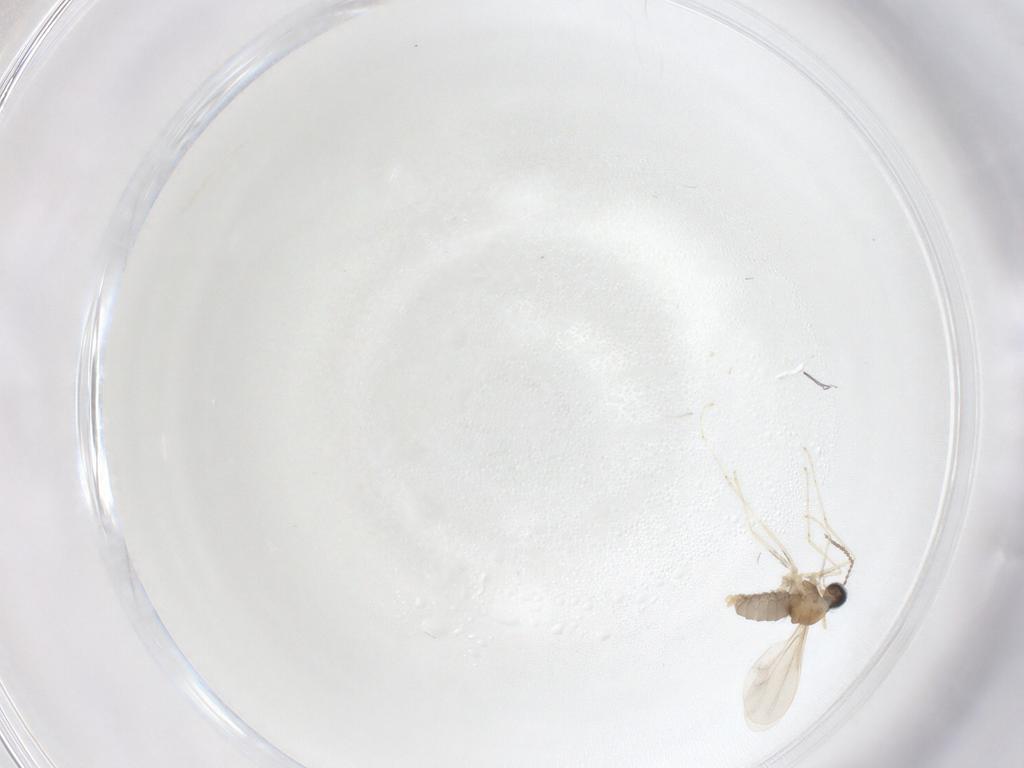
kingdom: Animalia
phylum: Arthropoda
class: Insecta
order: Diptera
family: Cecidomyiidae
